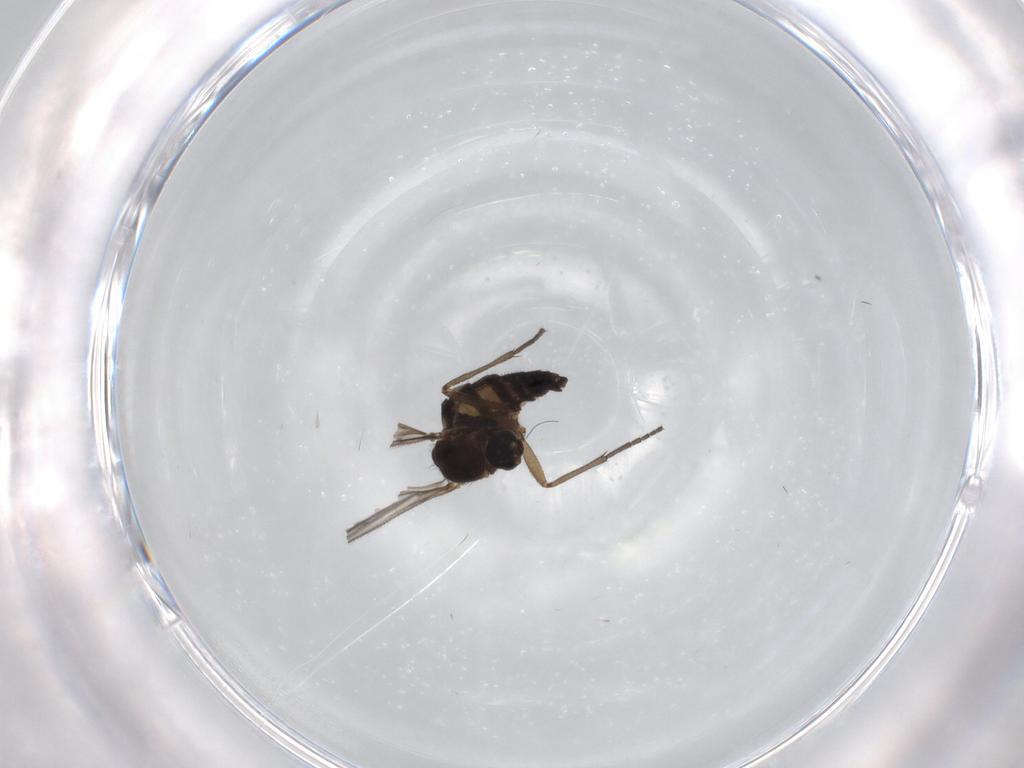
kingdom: Animalia
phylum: Arthropoda
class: Insecta
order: Diptera
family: Sciaridae
